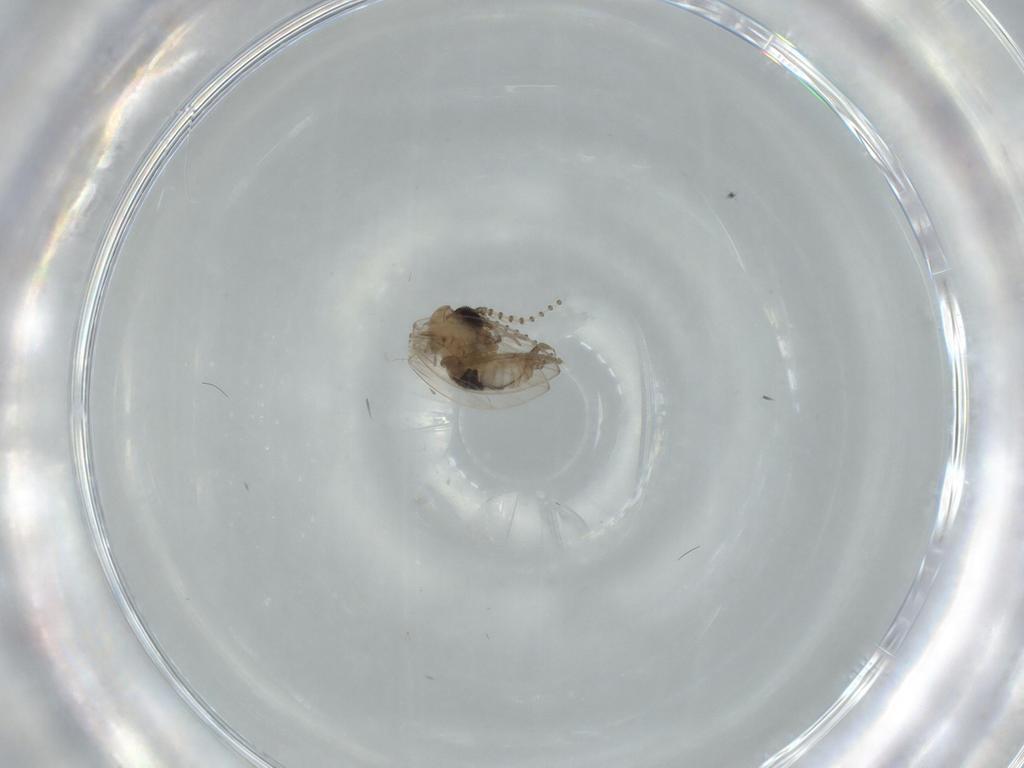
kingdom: Animalia
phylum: Arthropoda
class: Insecta
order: Diptera
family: Psychodidae
